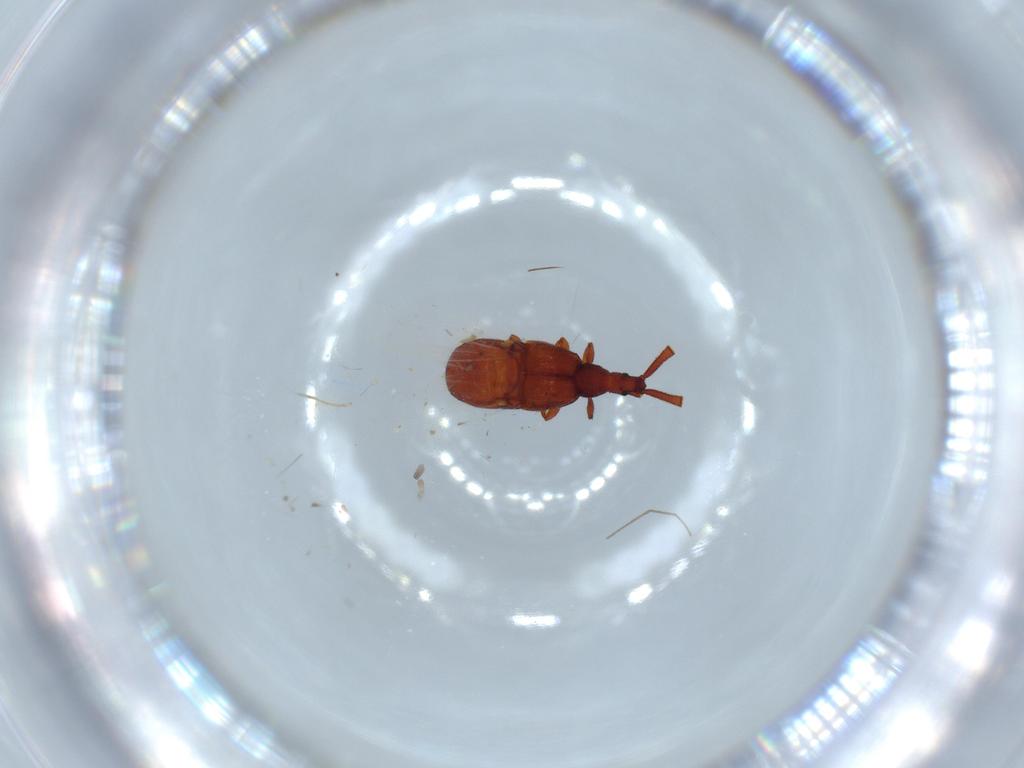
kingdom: Animalia
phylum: Arthropoda
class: Insecta
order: Coleoptera
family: Staphylinidae
